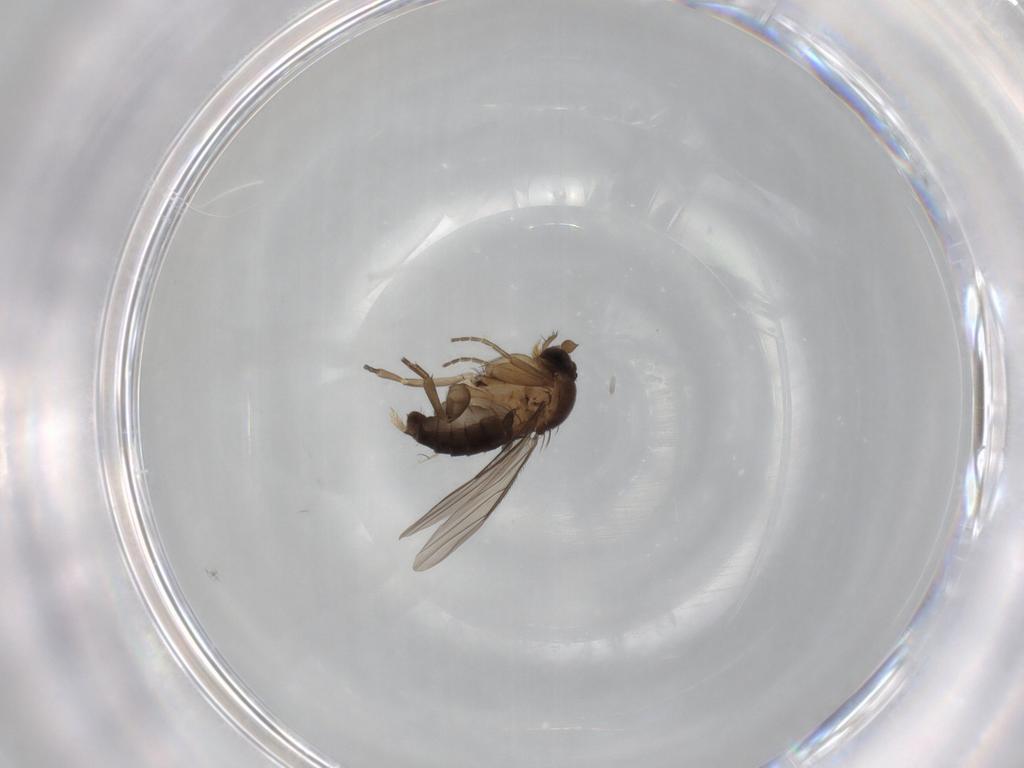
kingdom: Animalia
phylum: Arthropoda
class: Insecta
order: Diptera
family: Phoridae
